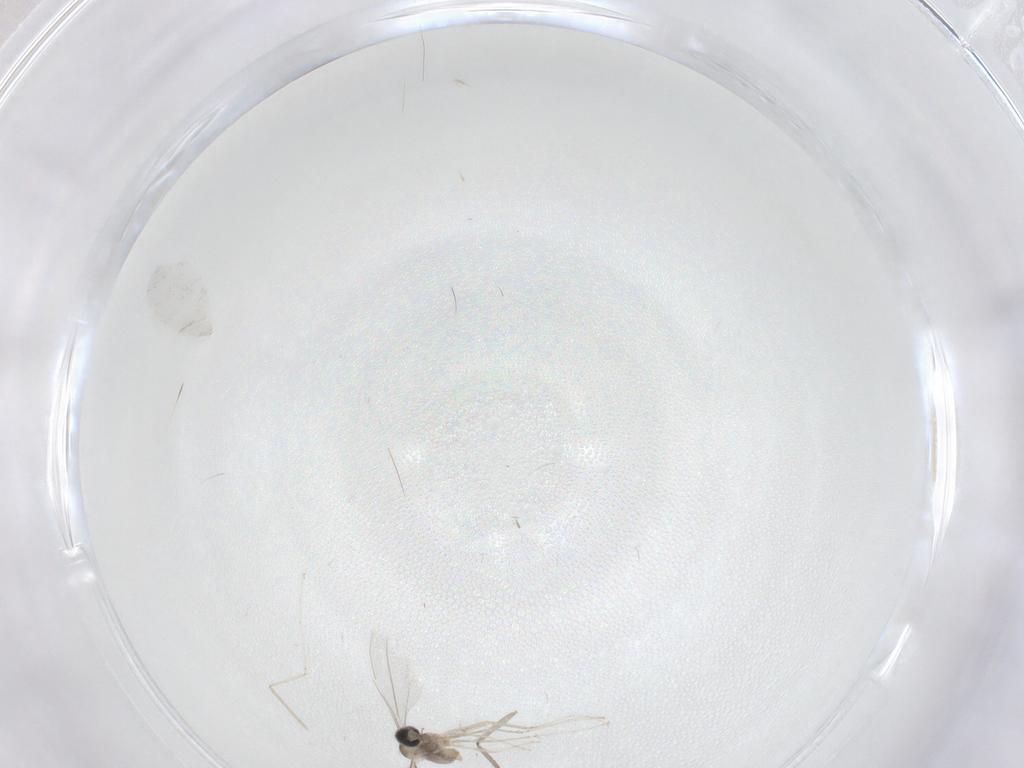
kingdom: Animalia
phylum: Arthropoda
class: Insecta
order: Diptera
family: Cecidomyiidae
